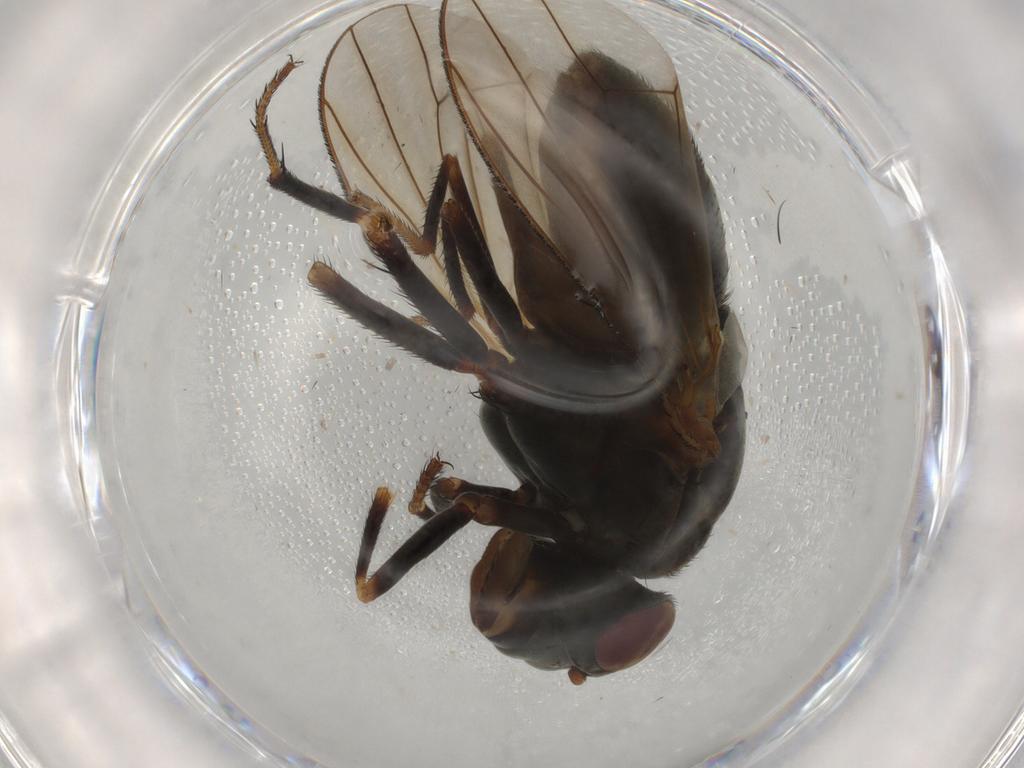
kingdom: Animalia
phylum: Arthropoda
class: Insecta
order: Diptera
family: Ephydridae
